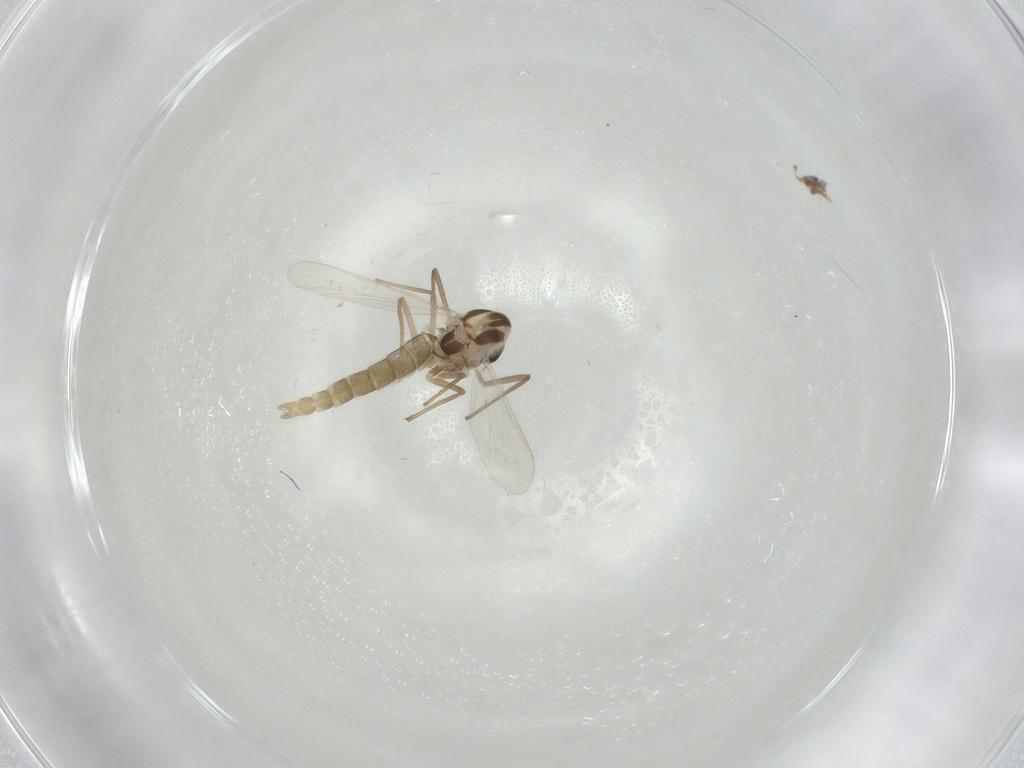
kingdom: Animalia
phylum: Arthropoda
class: Insecta
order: Diptera
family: Chironomidae
